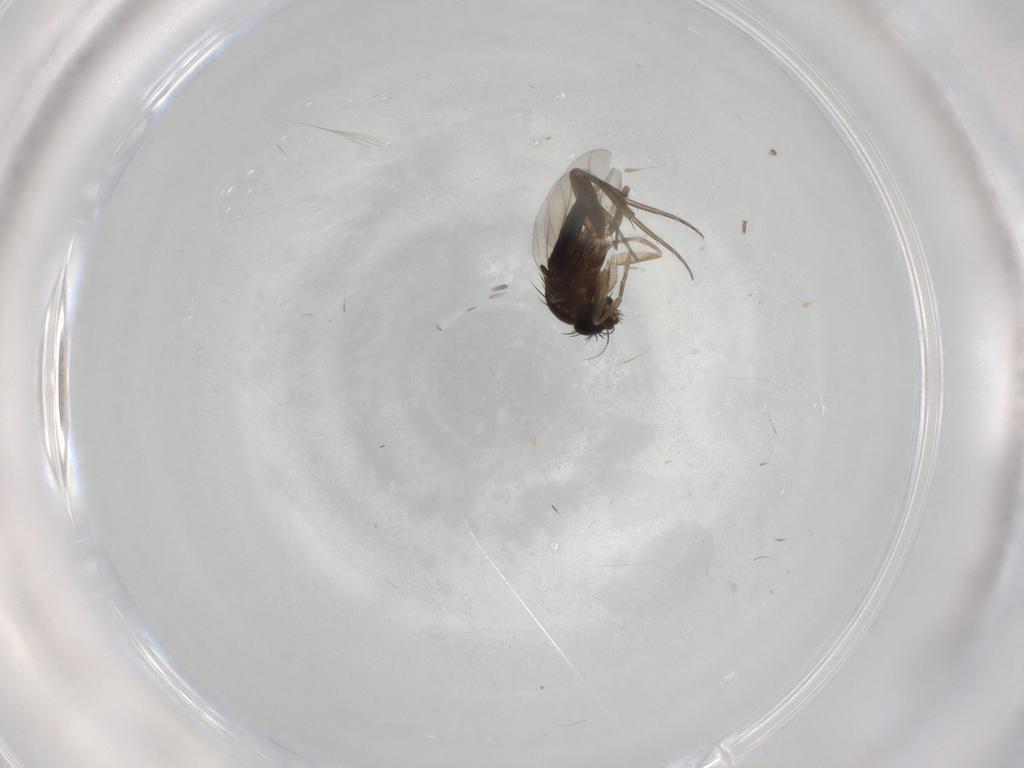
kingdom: Animalia
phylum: Arthropoda
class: Insecta
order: Diptera
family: Phoridae
